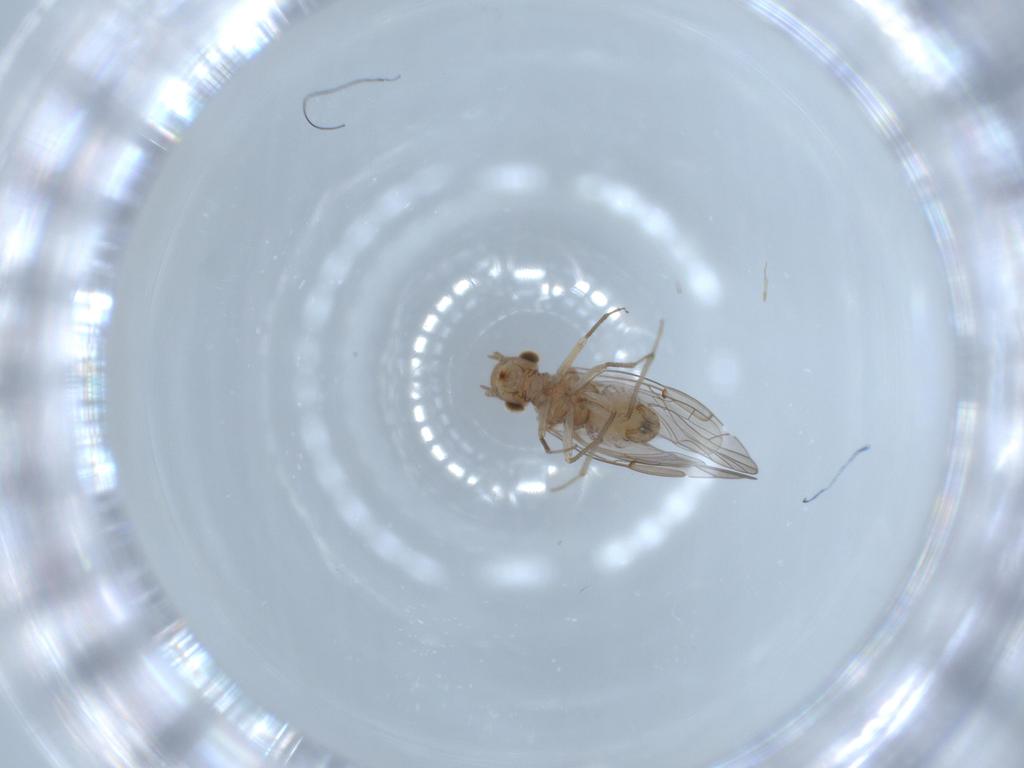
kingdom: Animalia
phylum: Arthropoda
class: Insecta
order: Psocodea
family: Lachesillidae
